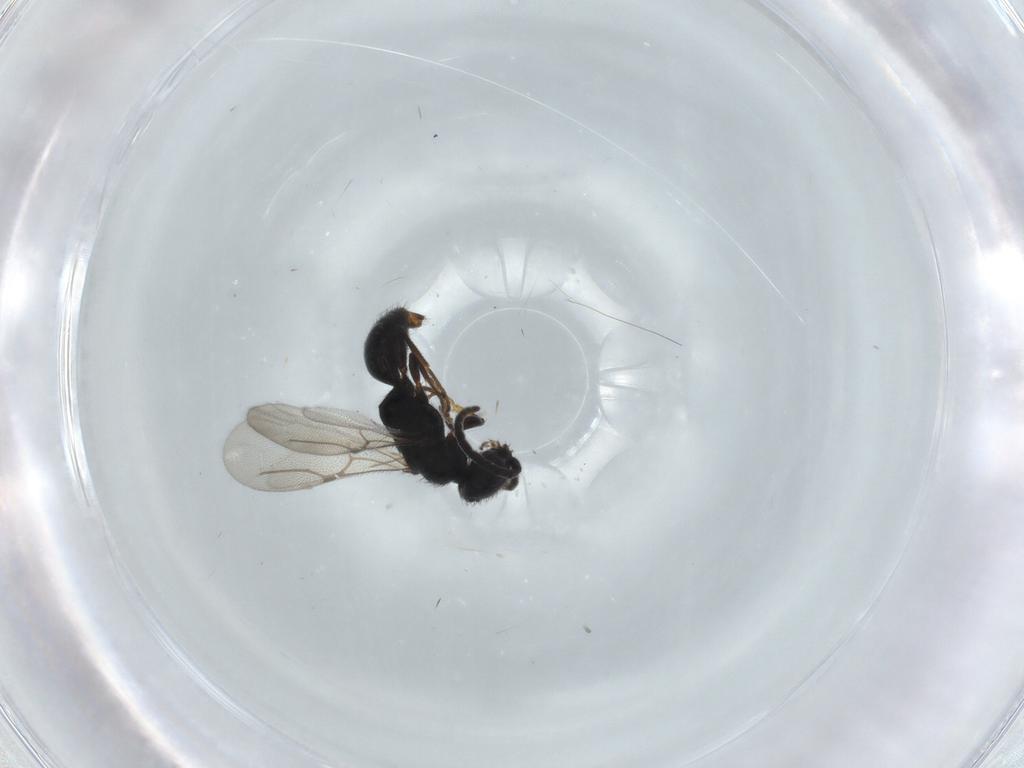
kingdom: Animalia
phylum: Arthropoda
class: Insecta
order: Hymenoptera
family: Bethylidae
